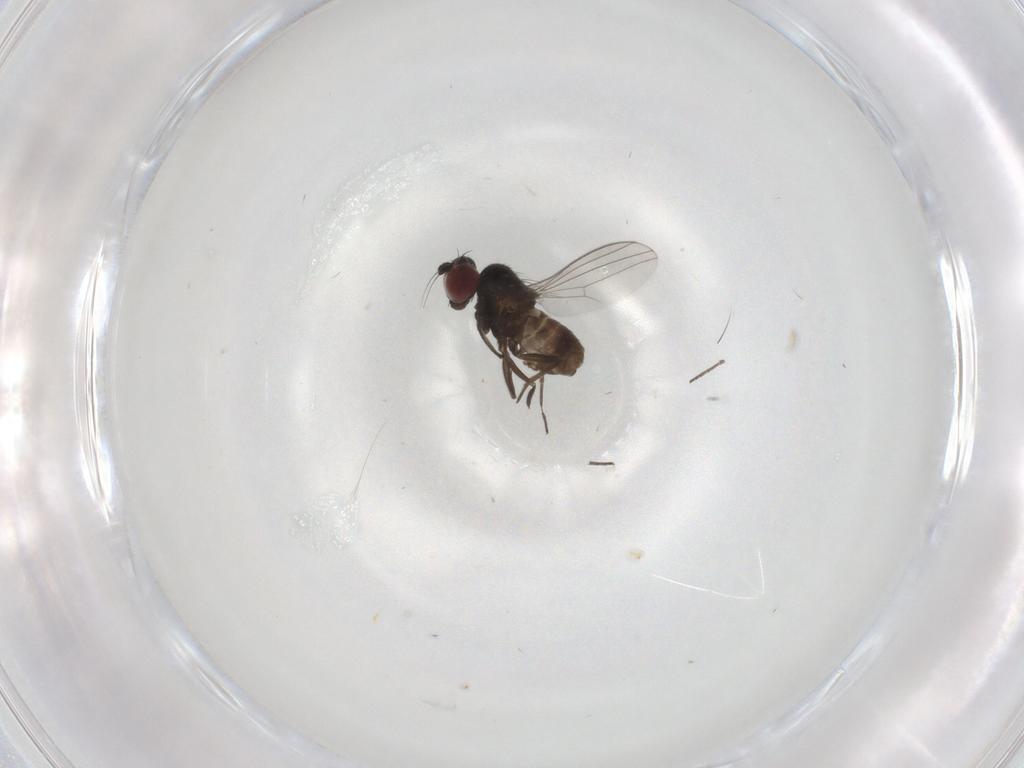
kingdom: Animalia
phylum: Arthropoda
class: Insecta
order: Diptera
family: Dolichopodidae
